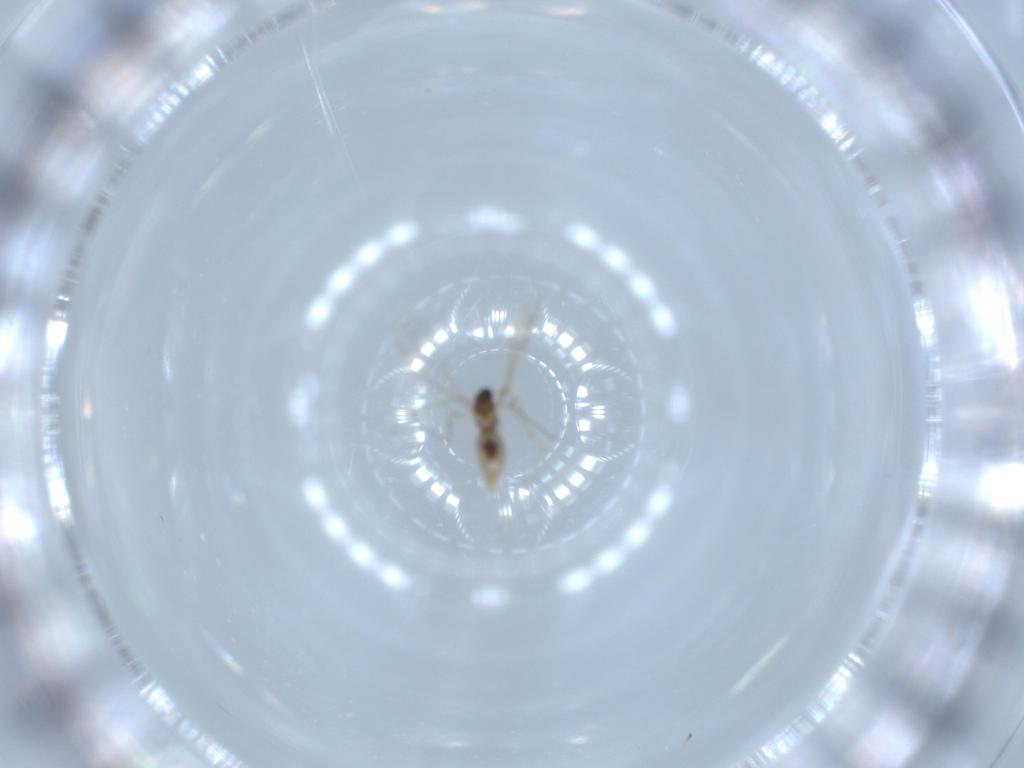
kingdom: Animalia
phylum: Arthropoda
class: Insecta
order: Diptera
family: Cecidomyiidae
